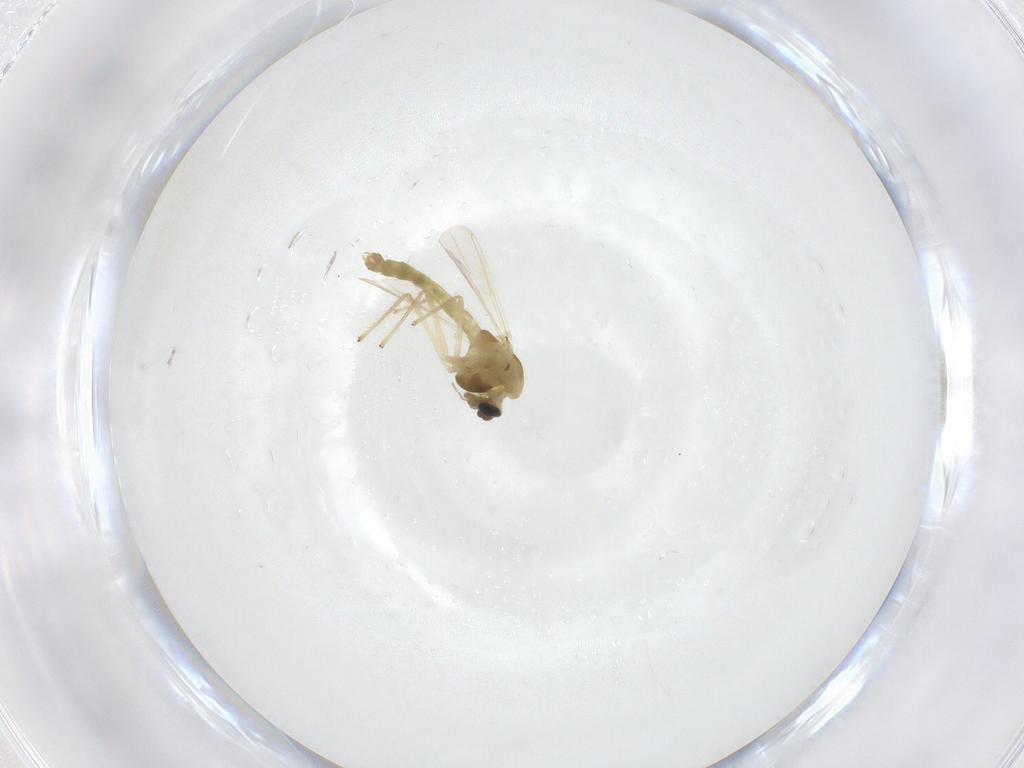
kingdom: Animalia
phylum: Arthropoda
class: Insecta
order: Diptera
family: Chironomidae
